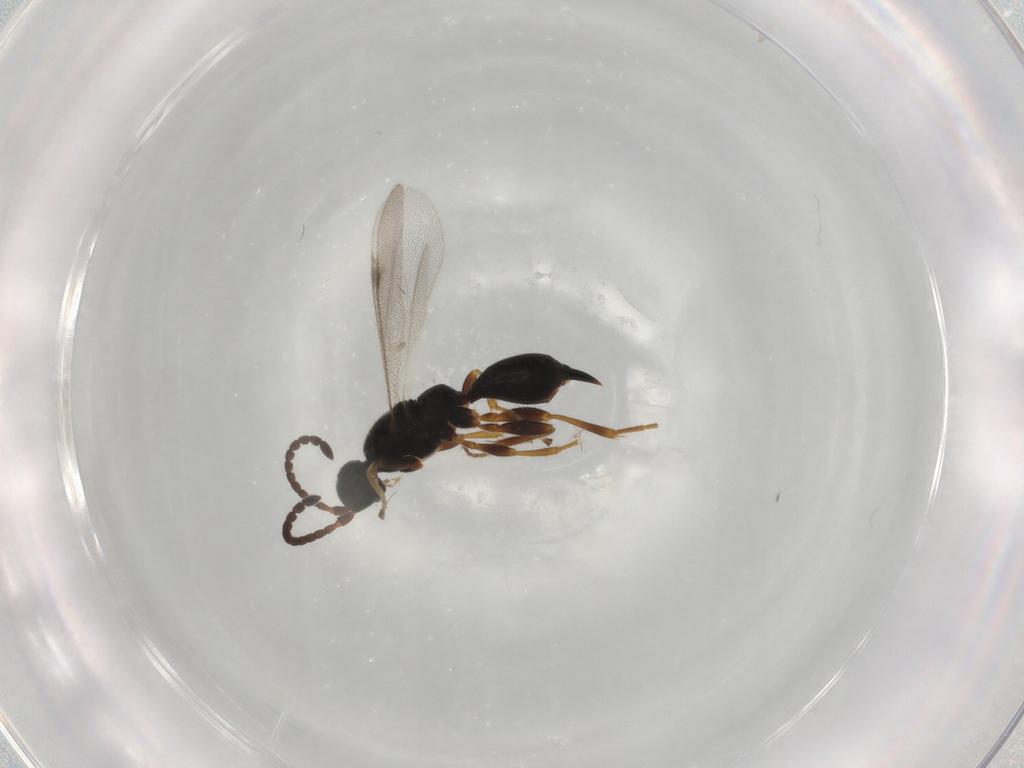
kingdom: Animalia
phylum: Arthropoda
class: Insecta
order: Hymenoptera
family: Proctotrupidae
